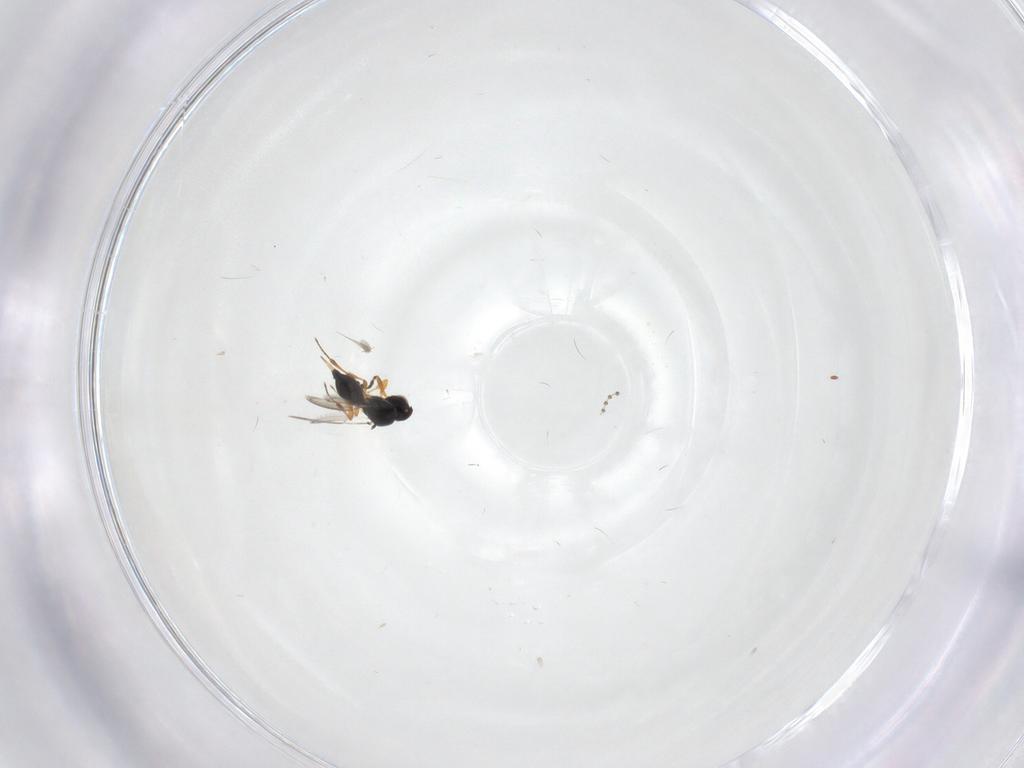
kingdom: Animalia
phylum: Arthropoda
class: Insecta
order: Hymenoptera
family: Platygastridae
